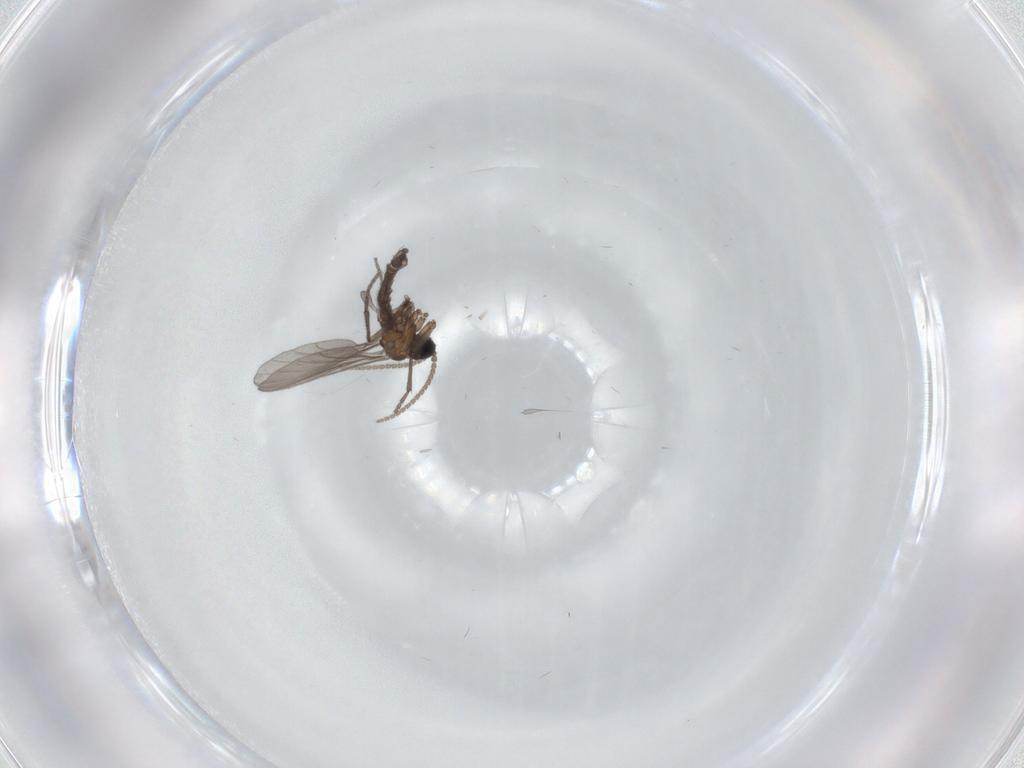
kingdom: Animalia
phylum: Arthropoda
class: Insecta
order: Diptera
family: Sciaridae
